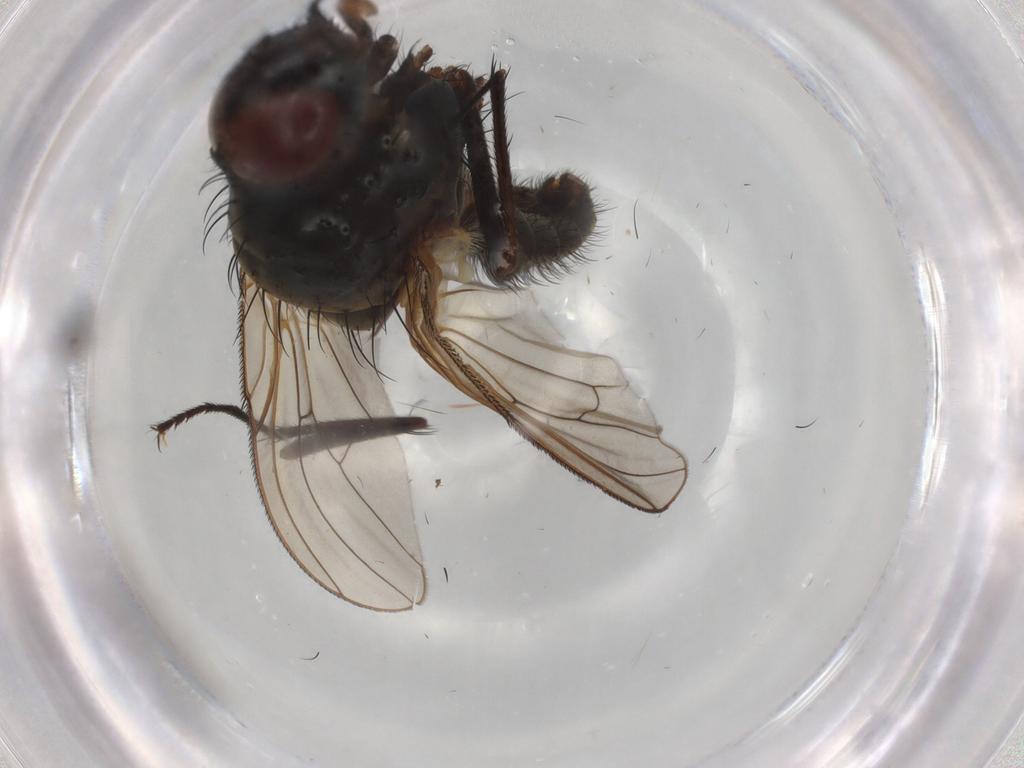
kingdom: Animalia
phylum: Arthropoda
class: Insecta
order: Diptera
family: Anthomyiidae
